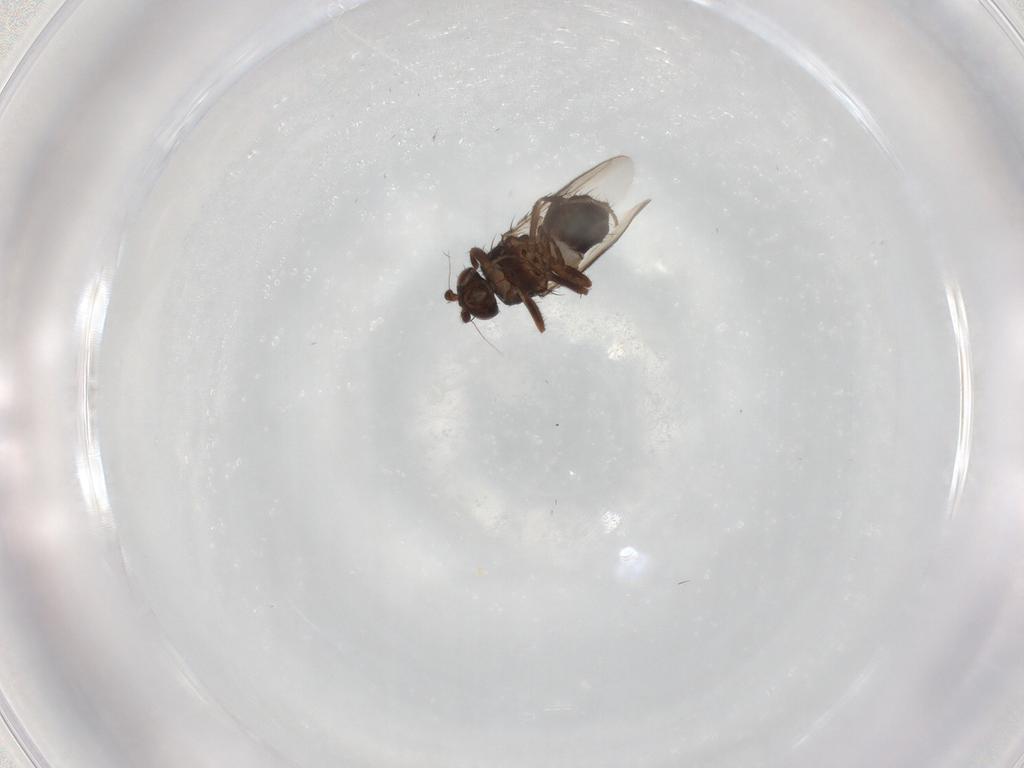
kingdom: Animalia
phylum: Arthropoda
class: Insecta
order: Diptera
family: Sphaeroceridae
